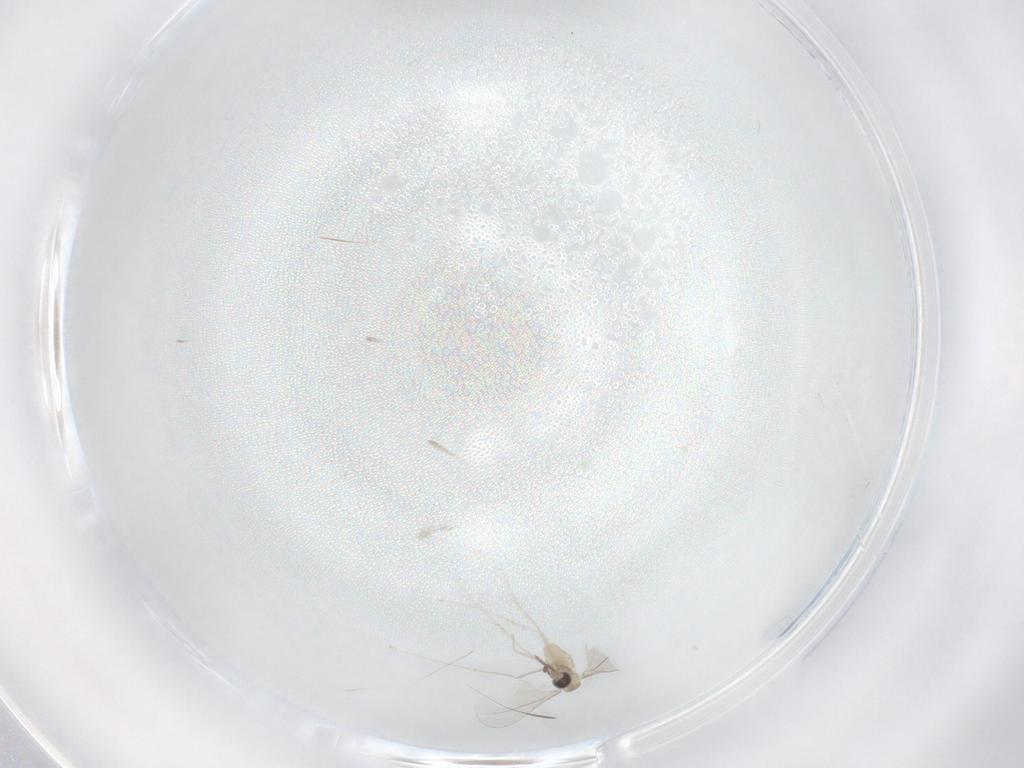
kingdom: Animalia
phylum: Arthropoda
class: Insecta
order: Diptera
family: Cecidomyiidae
